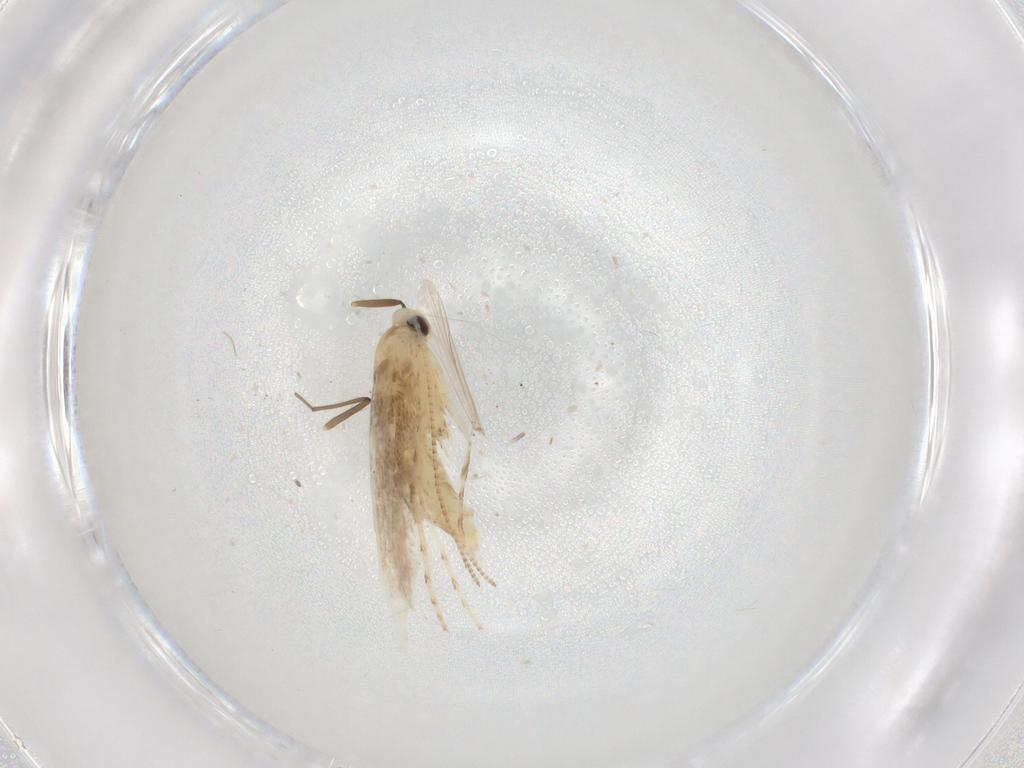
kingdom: Animalia
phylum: Arthropoda
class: Insecta
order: Lepidoptera
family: Gracillariidae
